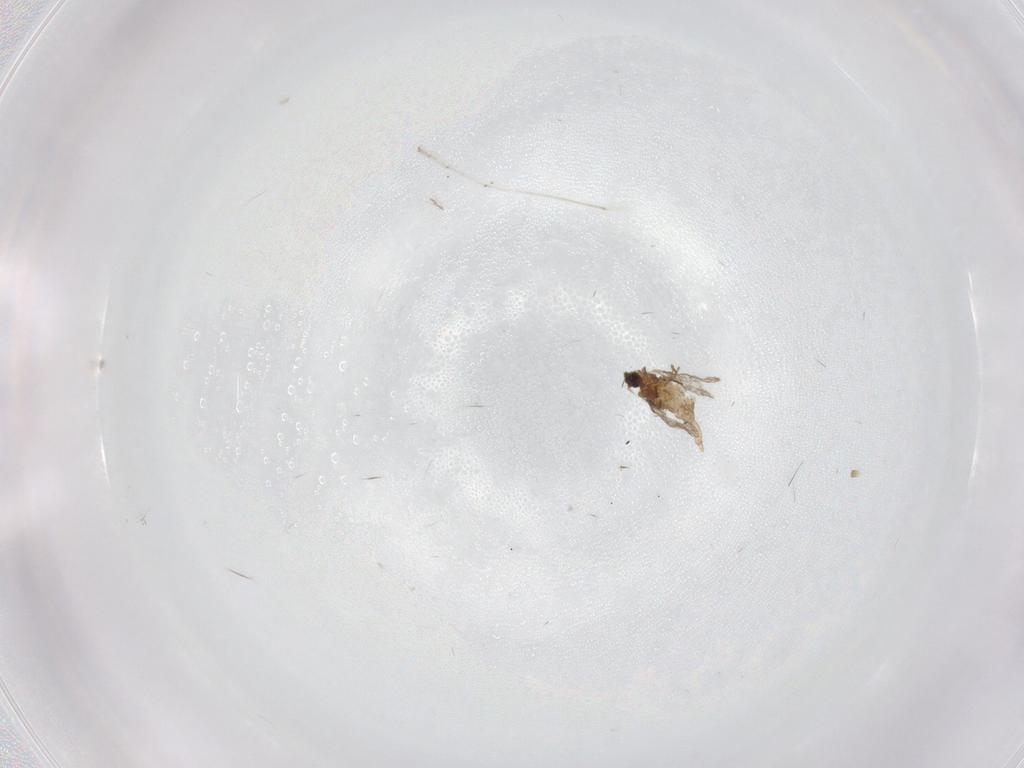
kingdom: Animalia
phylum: Arthropoda
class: Insecta
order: Diptera
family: Cecidomyiidae
